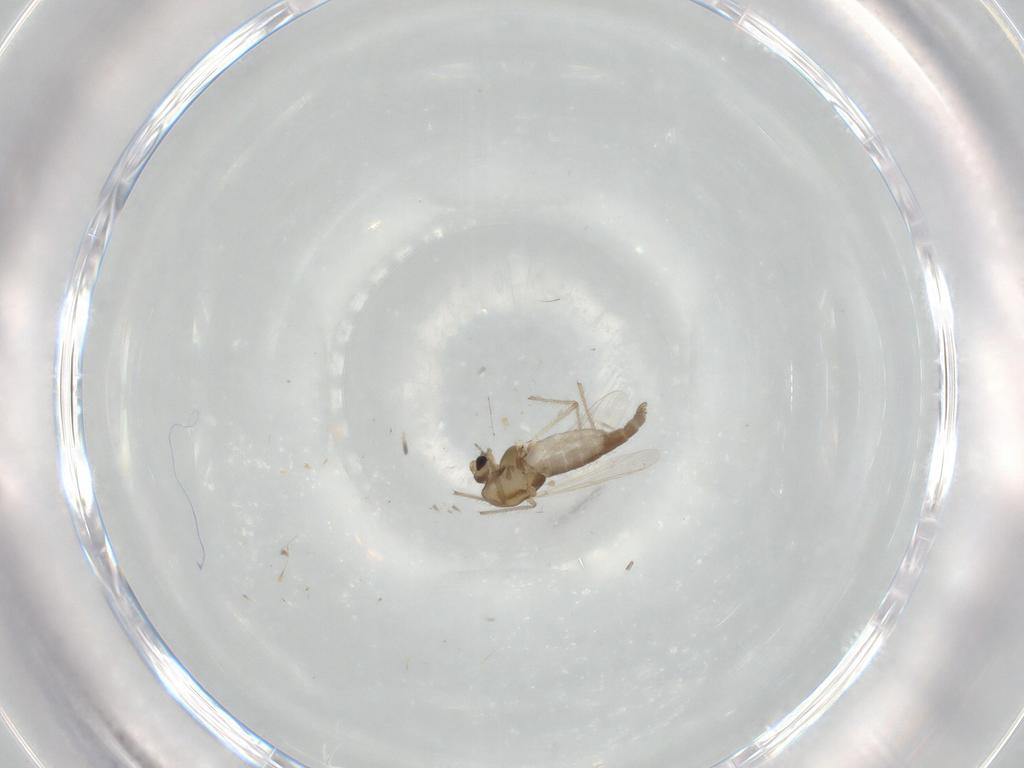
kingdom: Animalia
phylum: Arthropoda
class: Insecta
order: Diptera
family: Chironomidae
